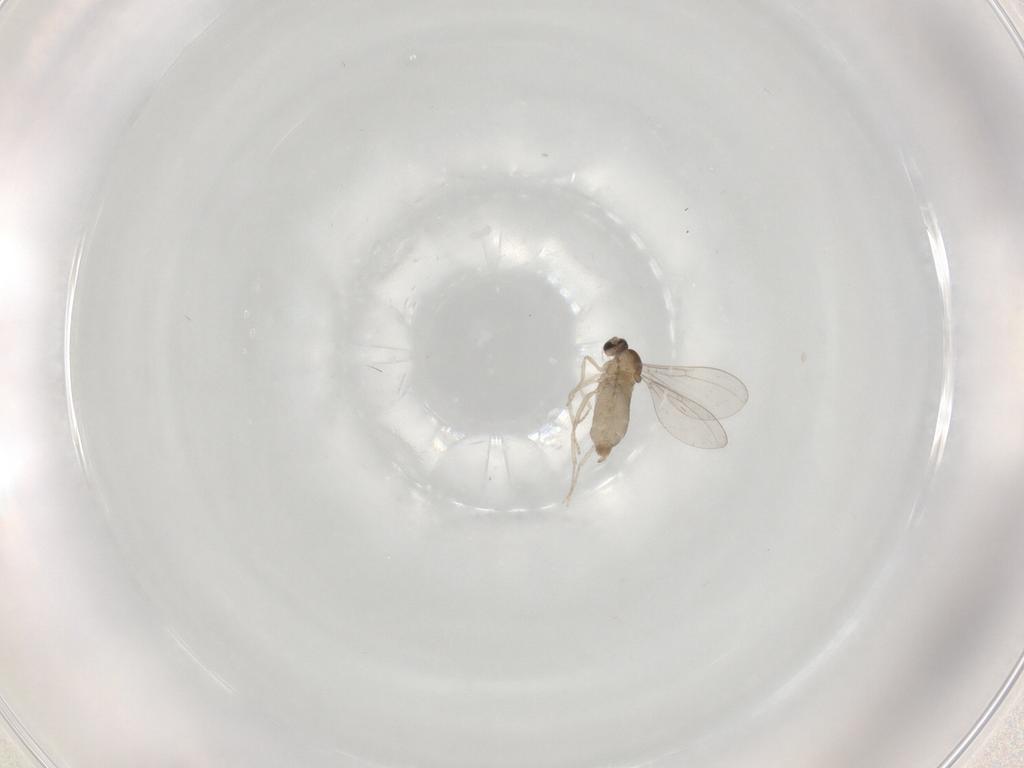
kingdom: Animalia
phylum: Arthropoda
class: Insecta
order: Diptera
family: Cecidomyiidae
